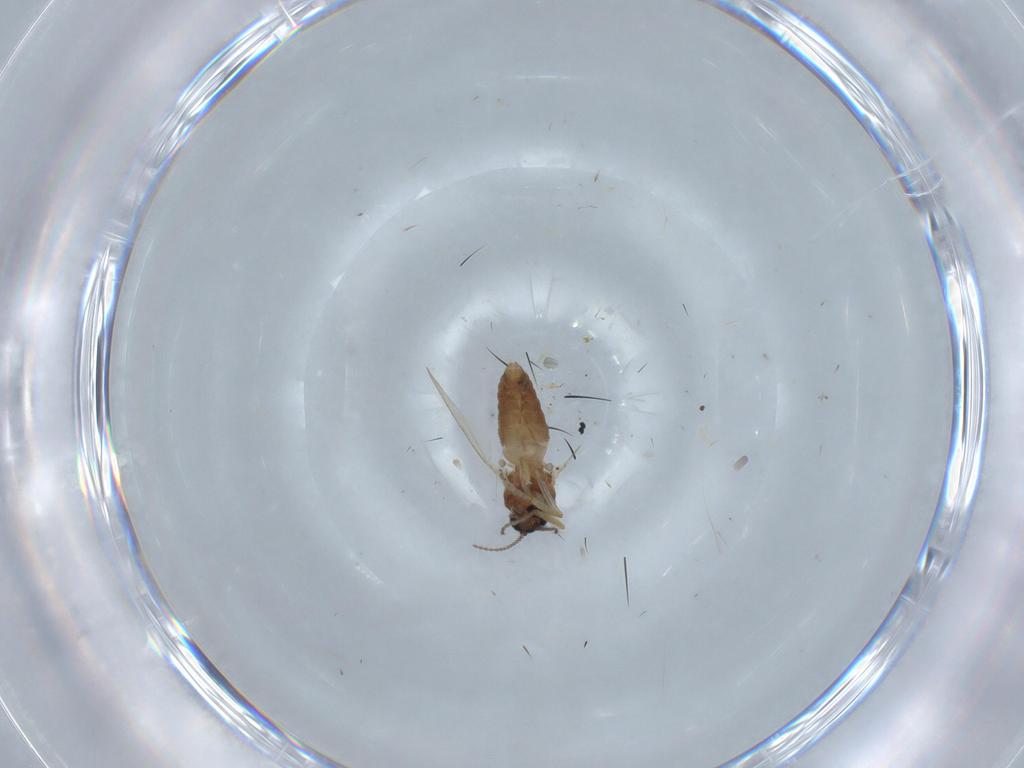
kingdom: Animalia
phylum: Arthropoda
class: Insecta
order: Diptera
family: Ceratopogonidae
